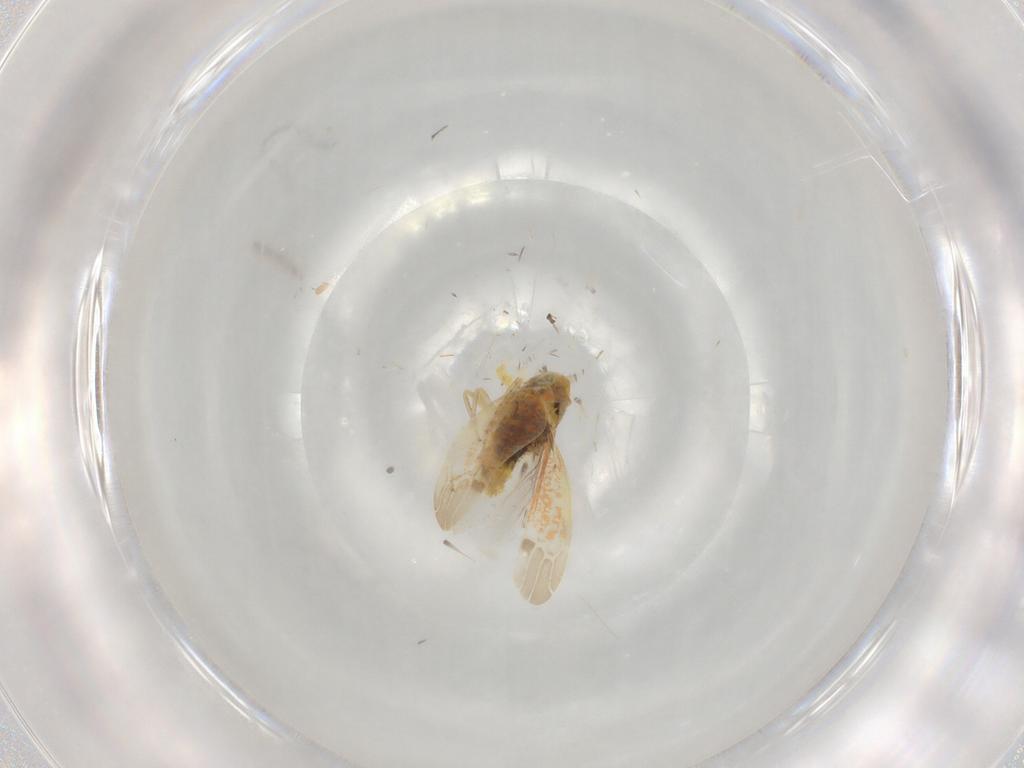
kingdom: Animalia
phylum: Arthropoda
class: Insecta
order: Hemiptera
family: Cicadellidae
